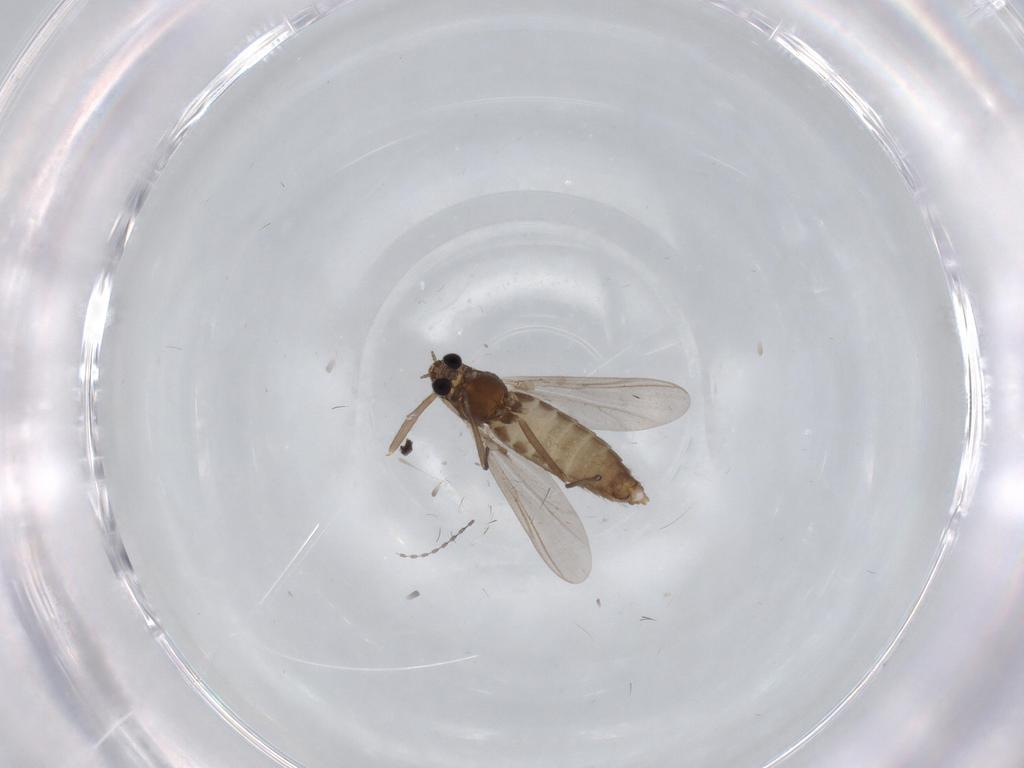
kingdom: Animalia
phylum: Arthropoda
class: Insecta
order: Diptera
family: Chironomidae
